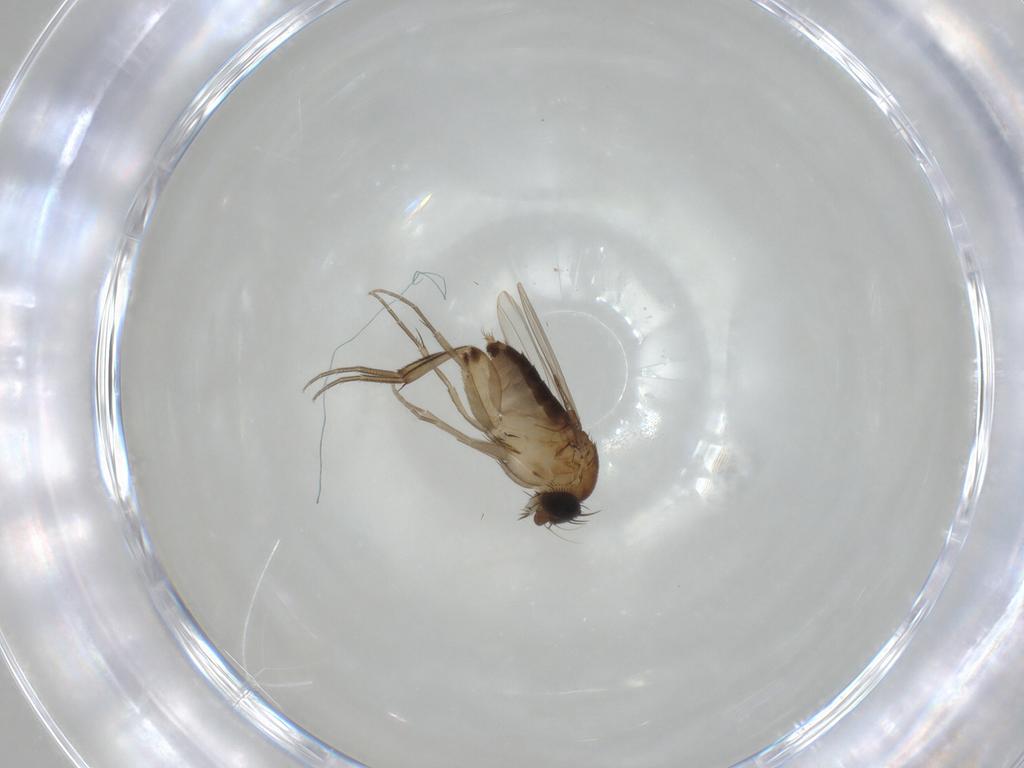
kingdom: Animalia
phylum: Arthropoda
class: Insecta
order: Diptera
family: Phoridae
